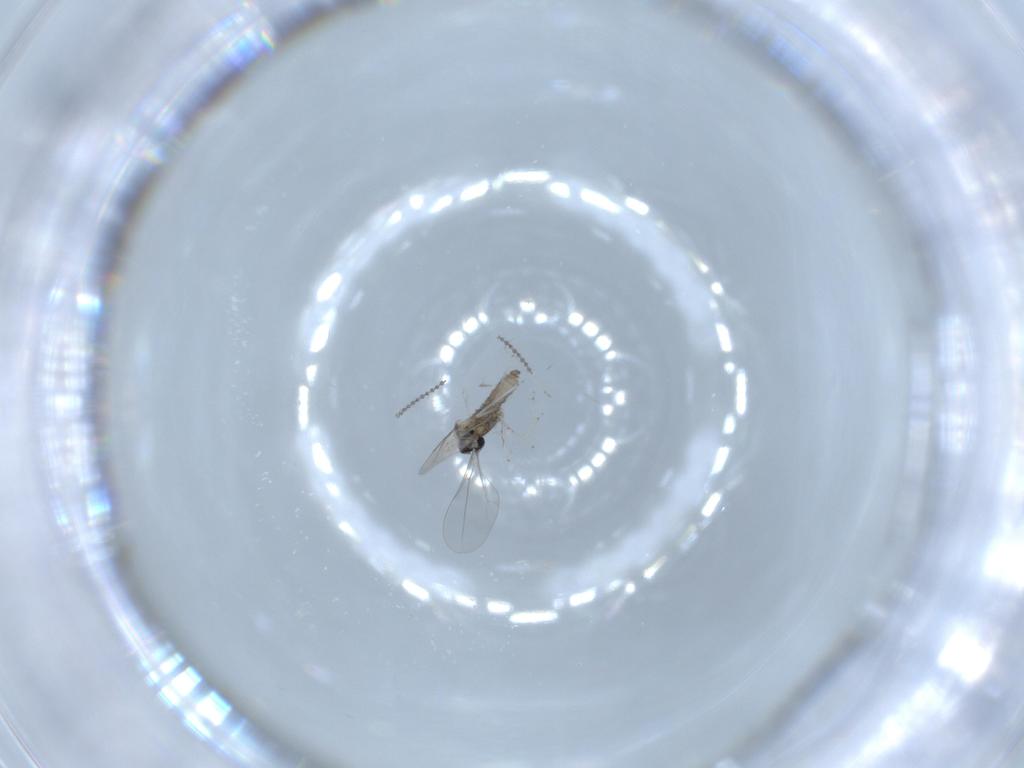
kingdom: Animalia
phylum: Arthropoda
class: Insecta
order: Diptera
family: Cecidomyiidae
